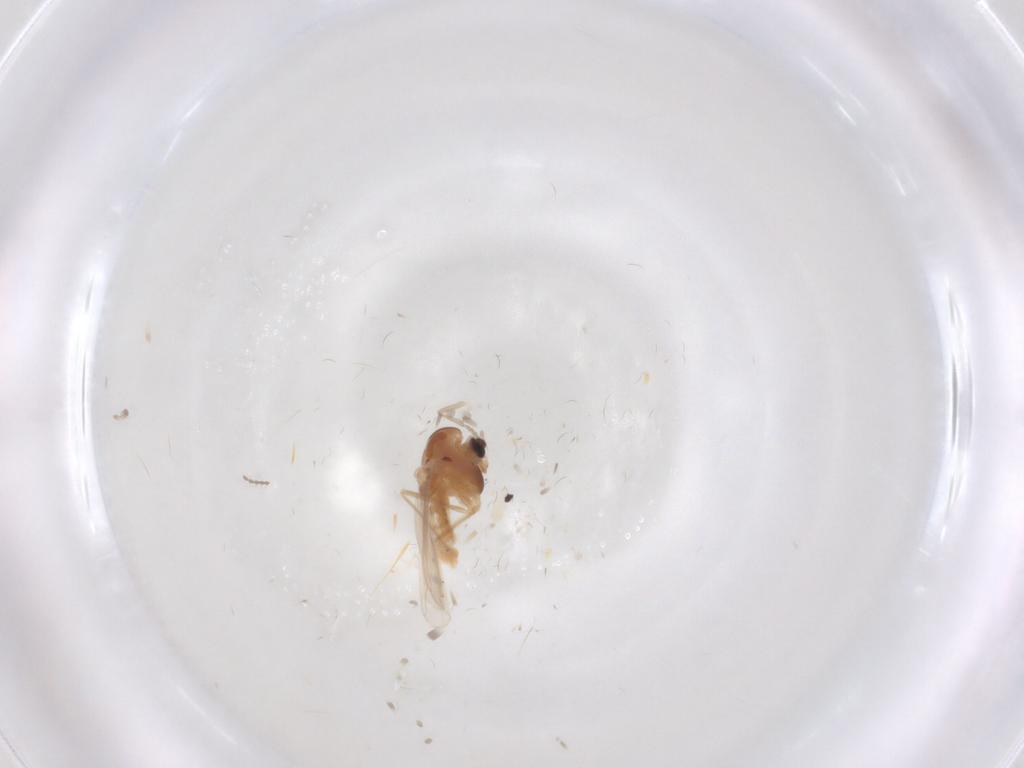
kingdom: Animalia
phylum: Arthropoda
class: Insecta
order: Diptera
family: Chironomidae
